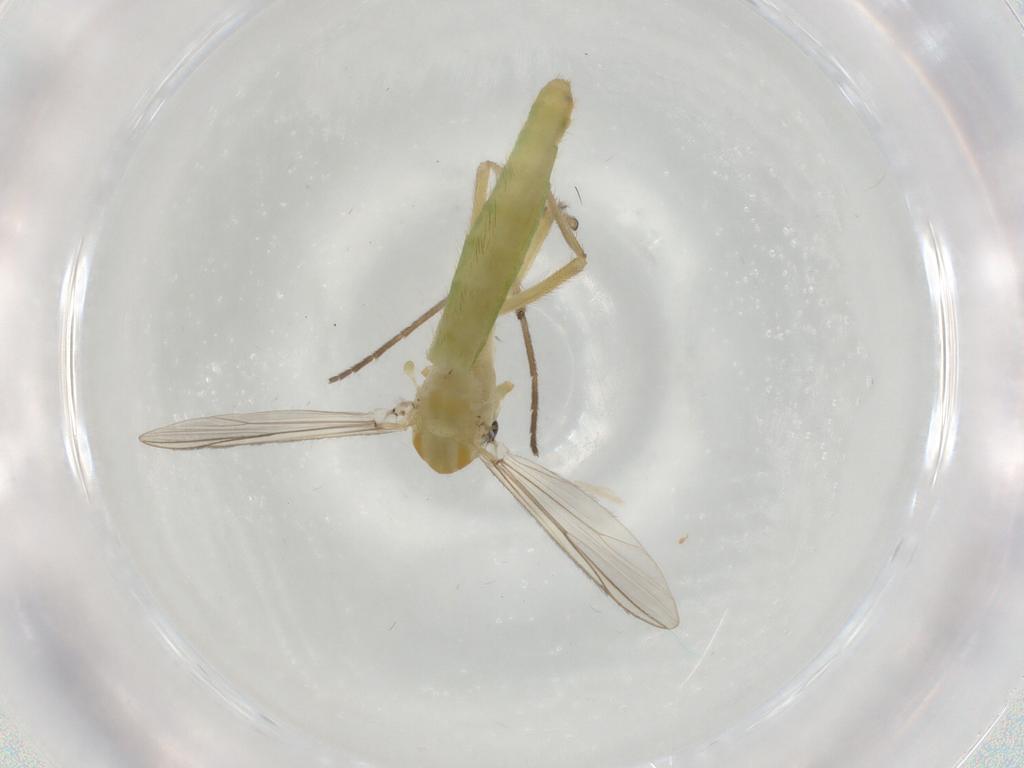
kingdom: Animalia
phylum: Arthropoda
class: Insecta
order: Diptera
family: Chironomidae
